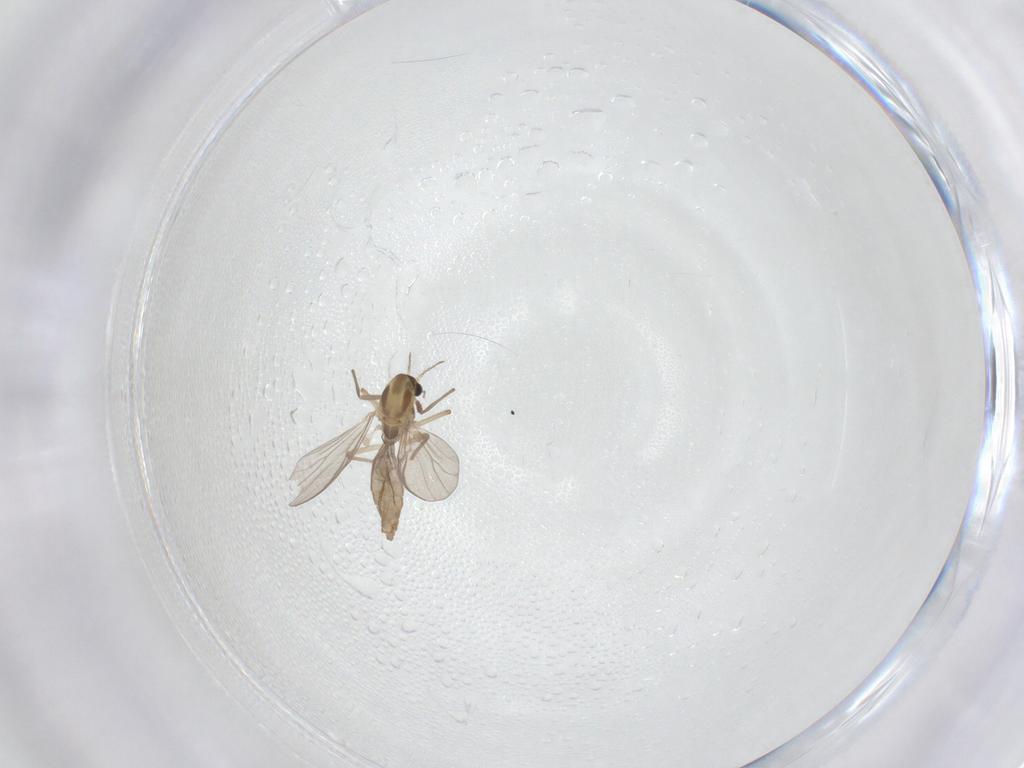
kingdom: Animalia
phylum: Arthropoda
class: Insecta
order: Diptera
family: Chironomidae
